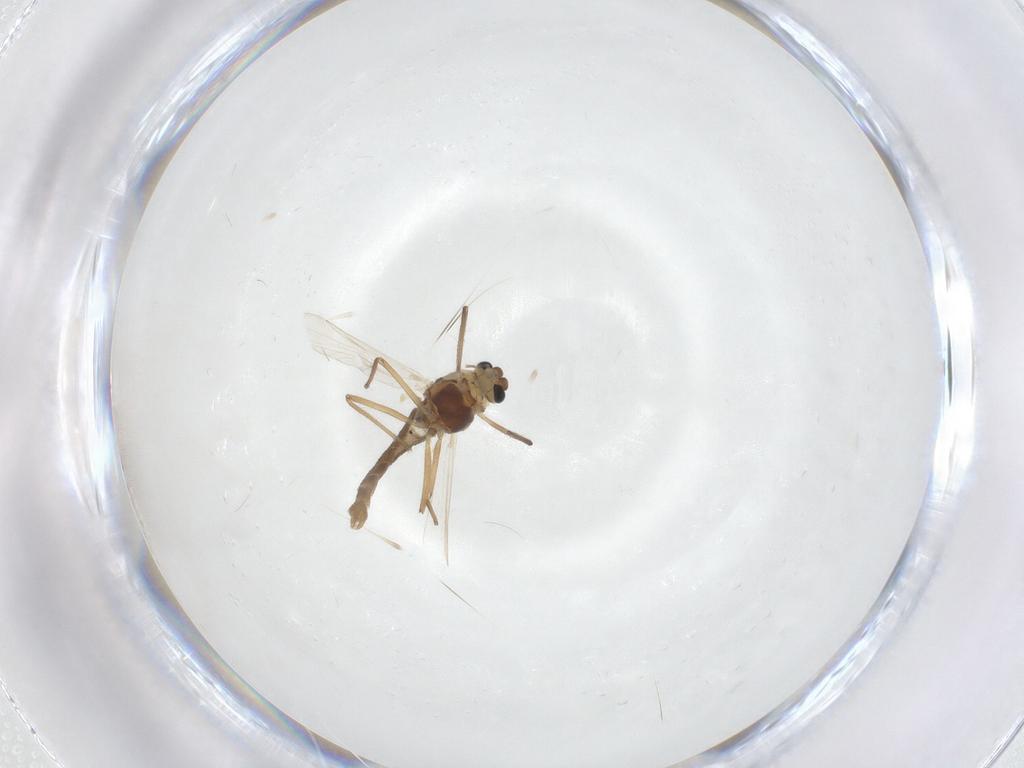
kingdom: Animalia
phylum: Arthropoda
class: Insecta
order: Diptera
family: Chironomidae
